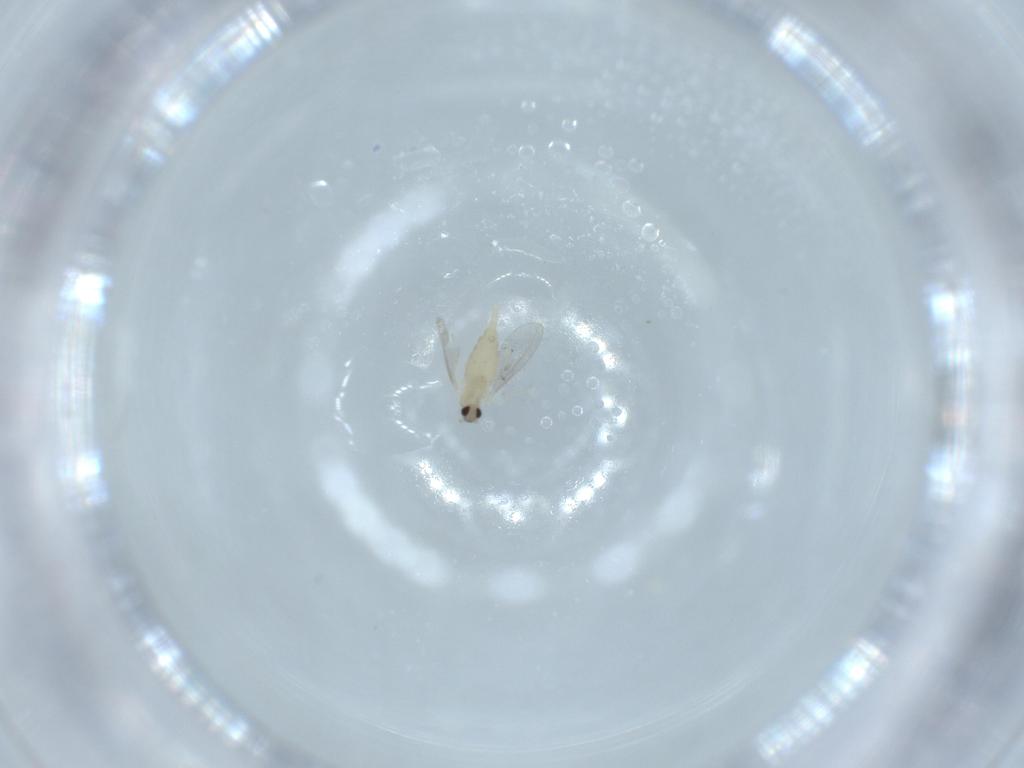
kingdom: Animalia
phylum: Arthropoda
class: Insecta
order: Diptera
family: Cecidomyiidae
